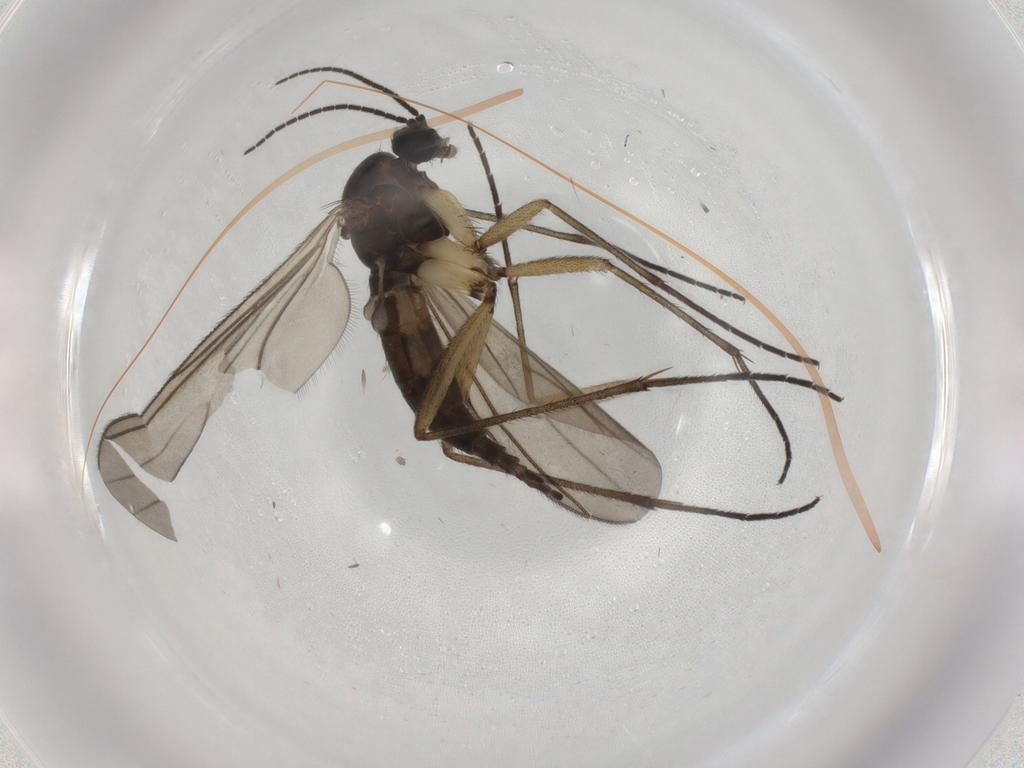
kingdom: Animalia
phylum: Arthropoda
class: Insecta
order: Diptera
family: Sciaridae
